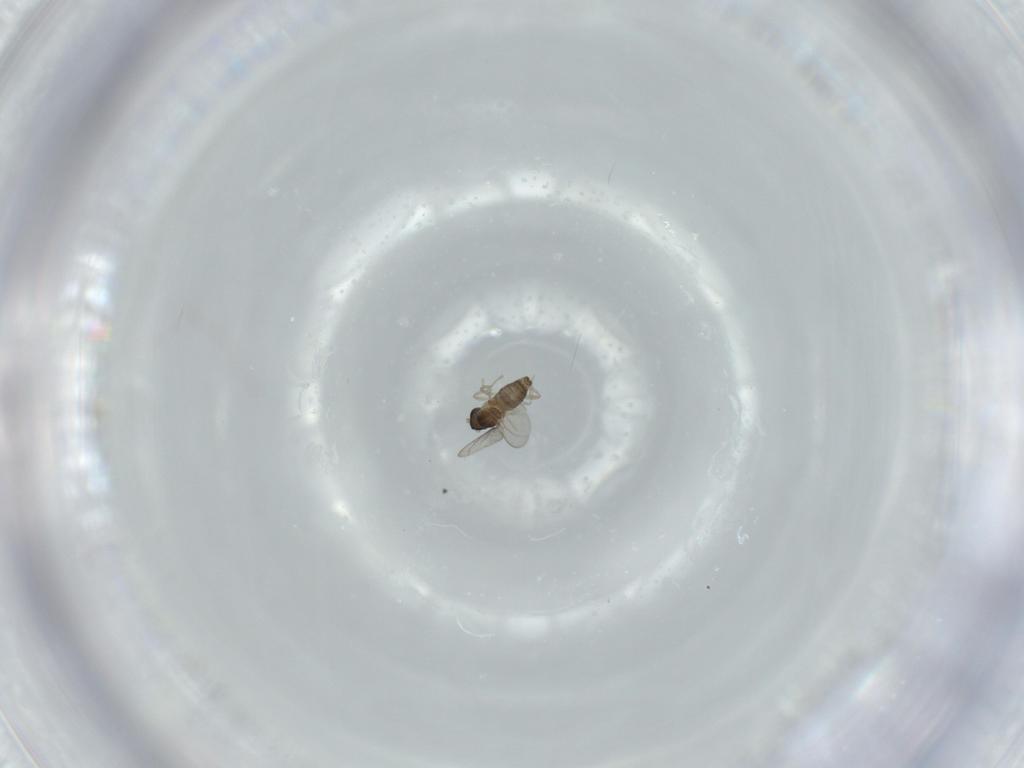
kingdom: Animalia
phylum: Arthropoda
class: Insecta
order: Diptera
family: Cecidomyiidae
